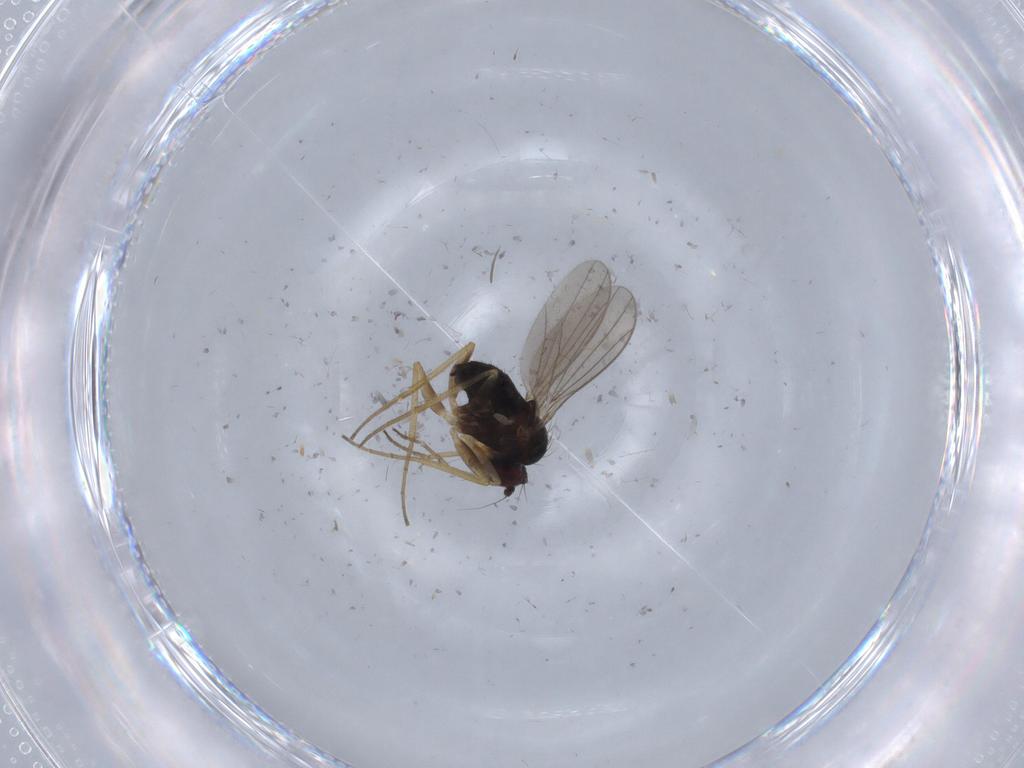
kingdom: Animalia
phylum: Arthropoda
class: Insecta
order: Diptera
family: Dolichopodidae
